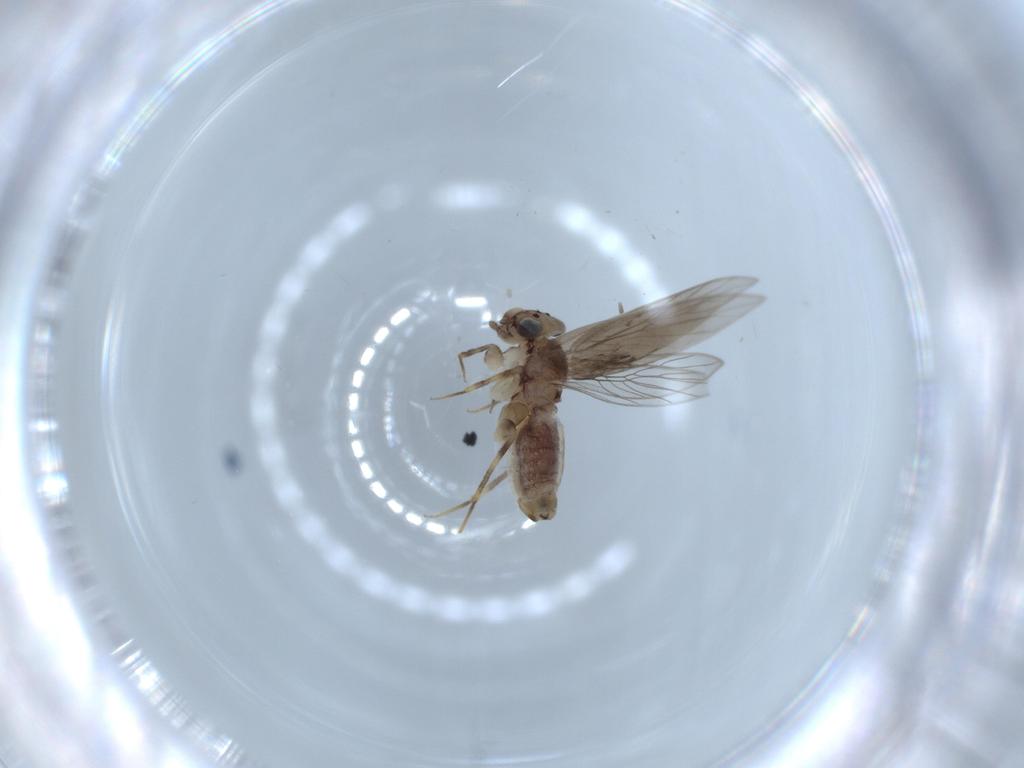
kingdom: Animalia
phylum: Arthropoda
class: Insecta
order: Psocodea
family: Lepidopsocidae
